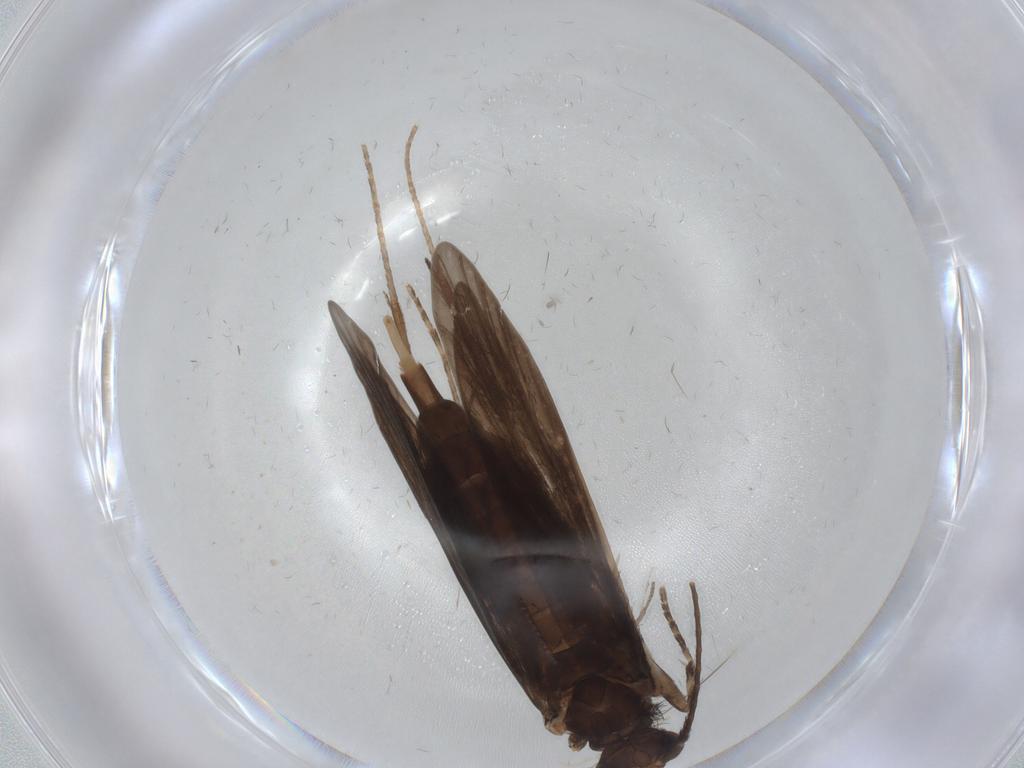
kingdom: Animalia
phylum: Arthropoda
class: Insecta
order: Trichoptera
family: Xiphocentronidae
